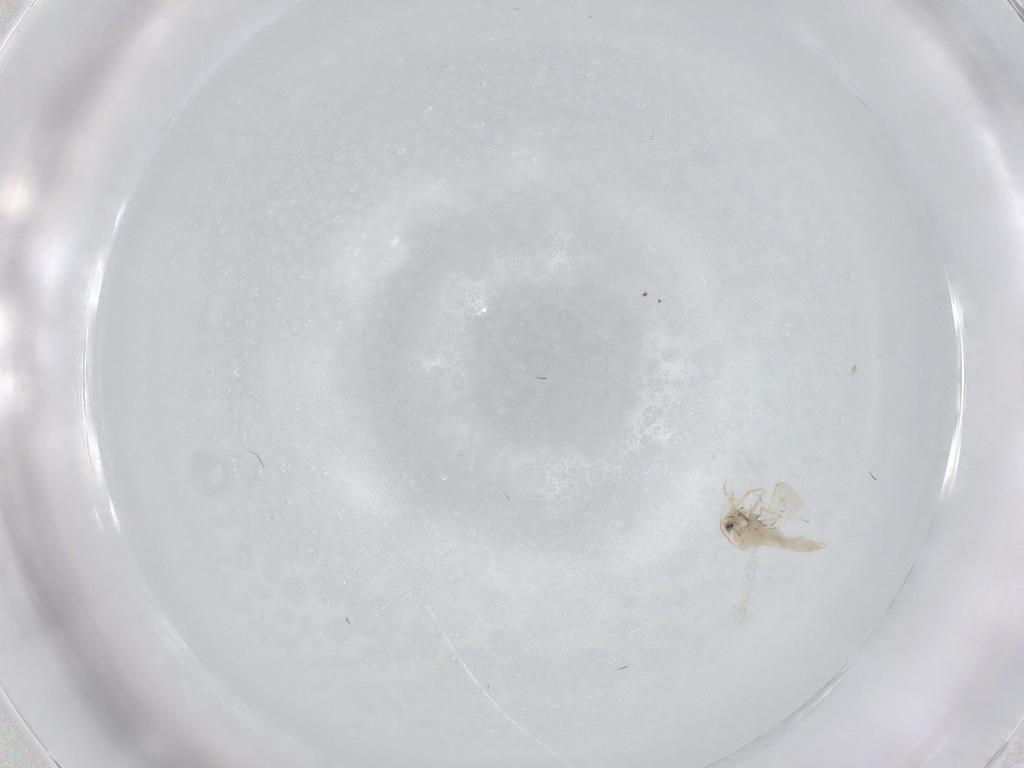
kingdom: Animalia
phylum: Arthropoda
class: Insecta
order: Diptera
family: Chironomidae
